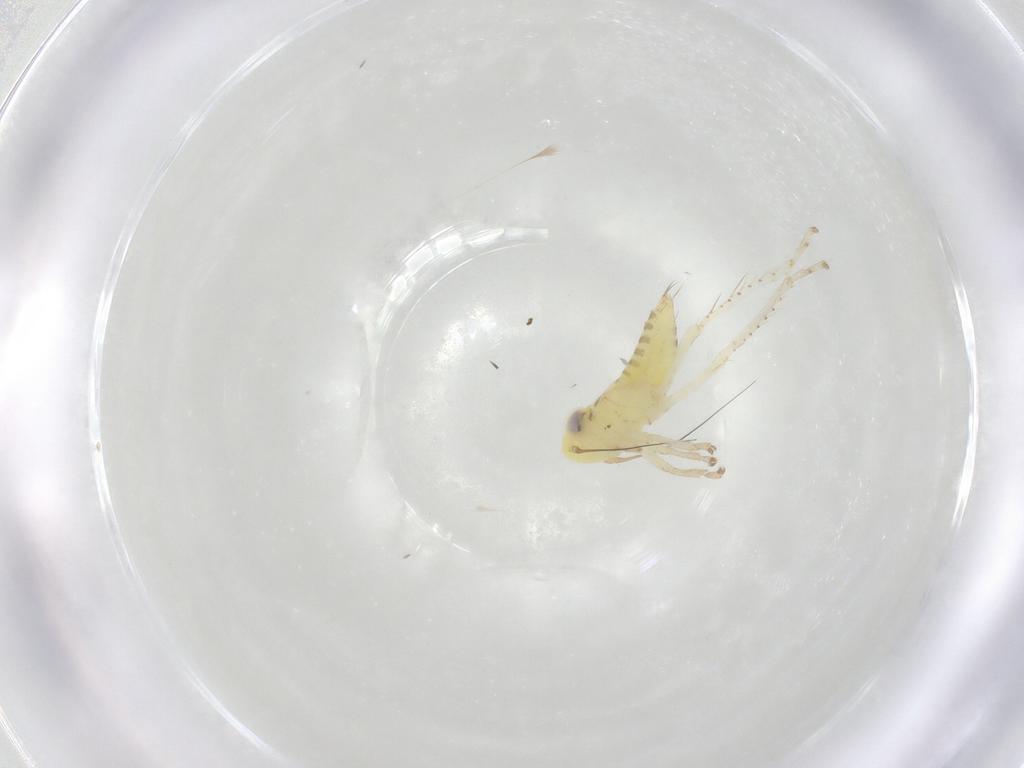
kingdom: Animalia
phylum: Arthropoda
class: Insecta
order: Hemiptera
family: Cicadellidae
